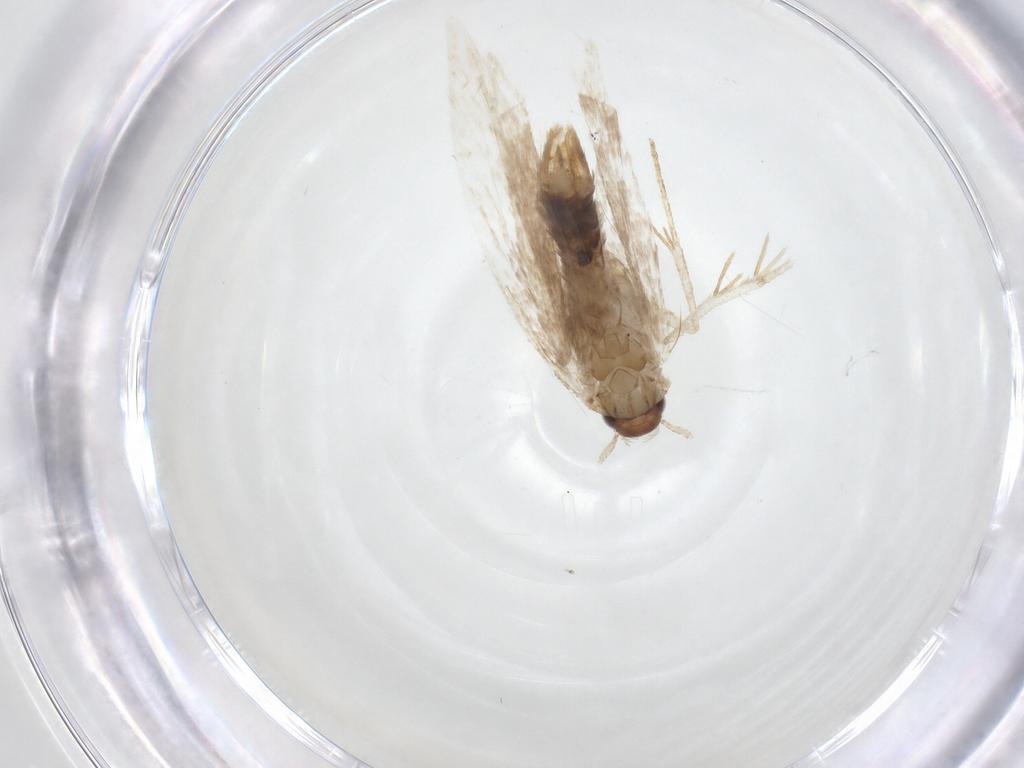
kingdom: Animalia
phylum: Arthropoda
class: Insecta
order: Lepidoptera
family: Gelechiidae
